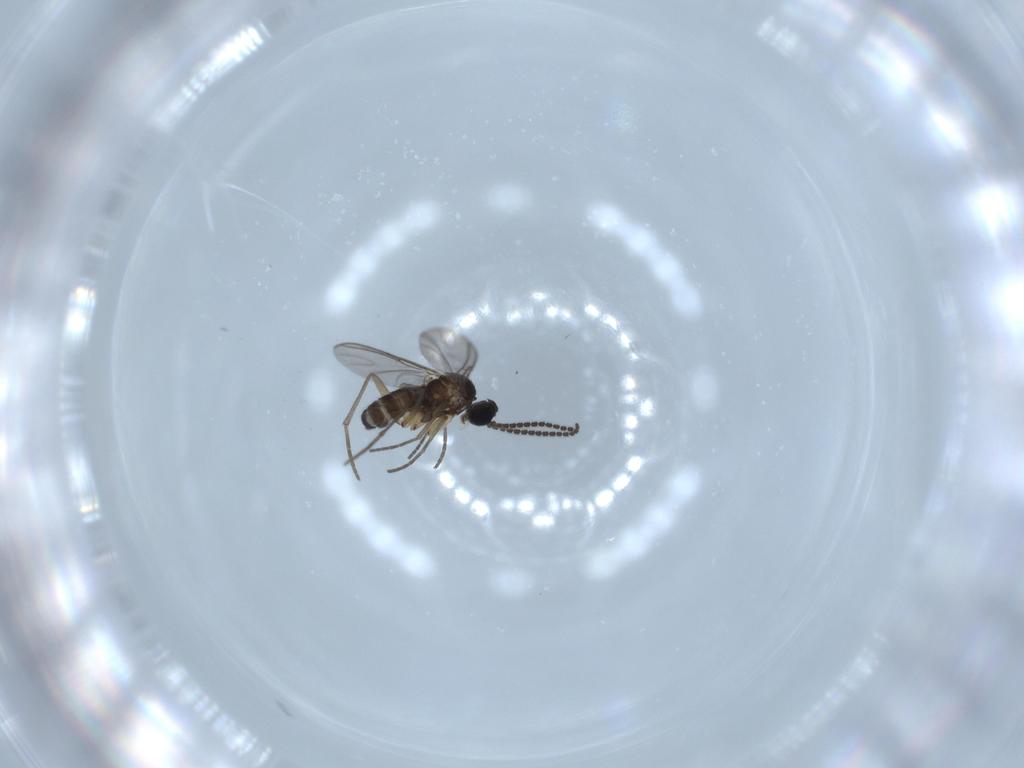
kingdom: Animalia
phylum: Arthropoda
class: Insecta
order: Diptera
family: Sciaridae
